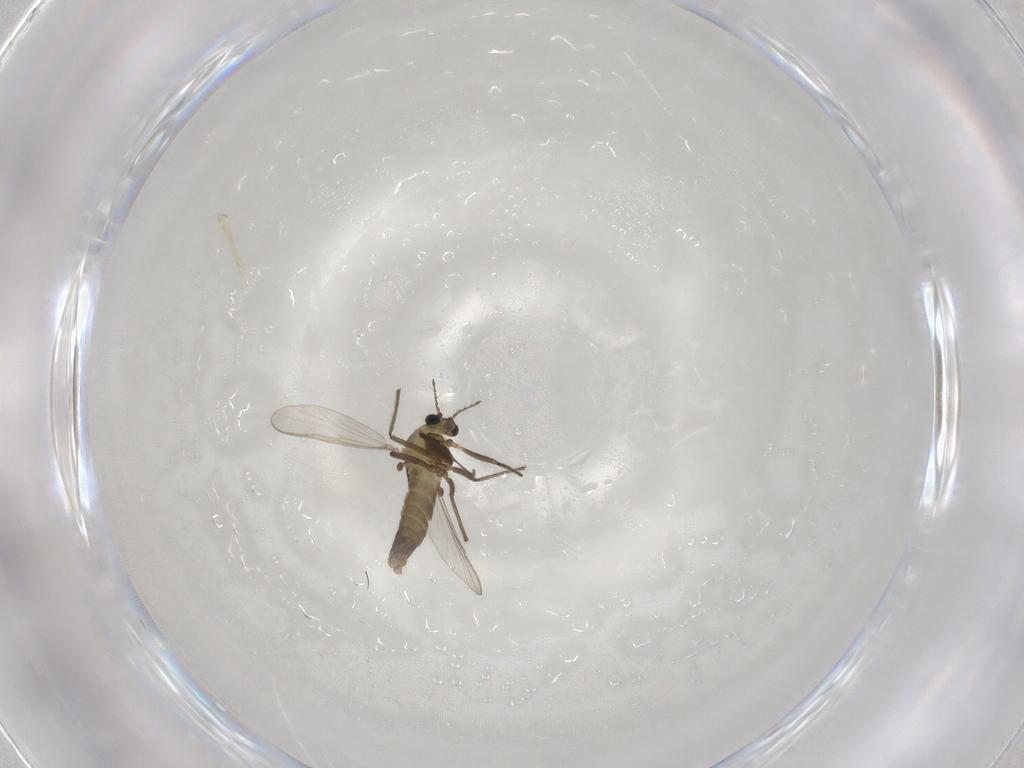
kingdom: Animalia
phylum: Arthropoda
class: Insecta
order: Diptera
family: Chironomidae
